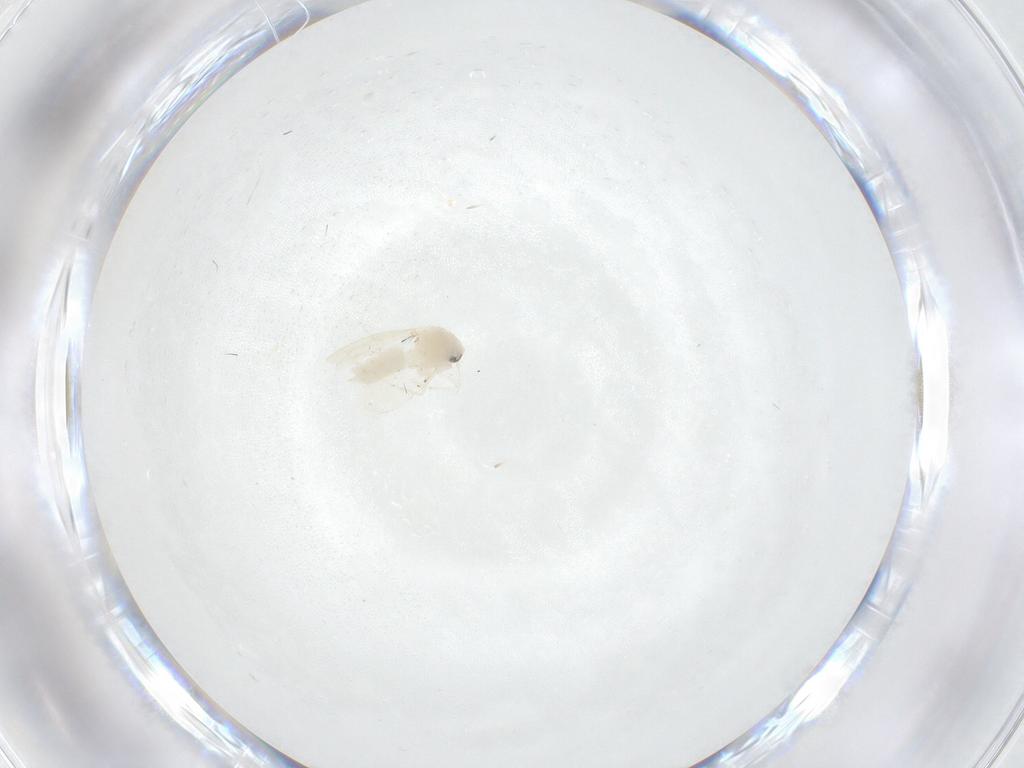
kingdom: Animalia
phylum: Arthropoda
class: Insecta
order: Hemiptera
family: Aleyrodidae
